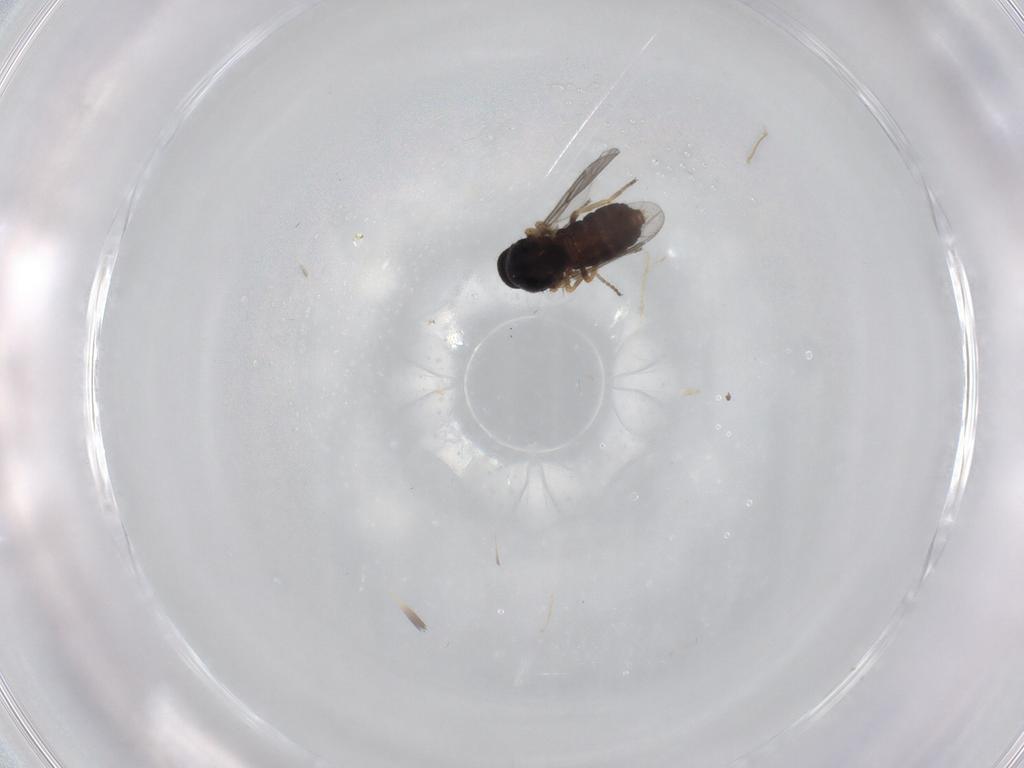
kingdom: Animalia
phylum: Arthropoda
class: Insecta
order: Diptera
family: Ceratopogonidae
